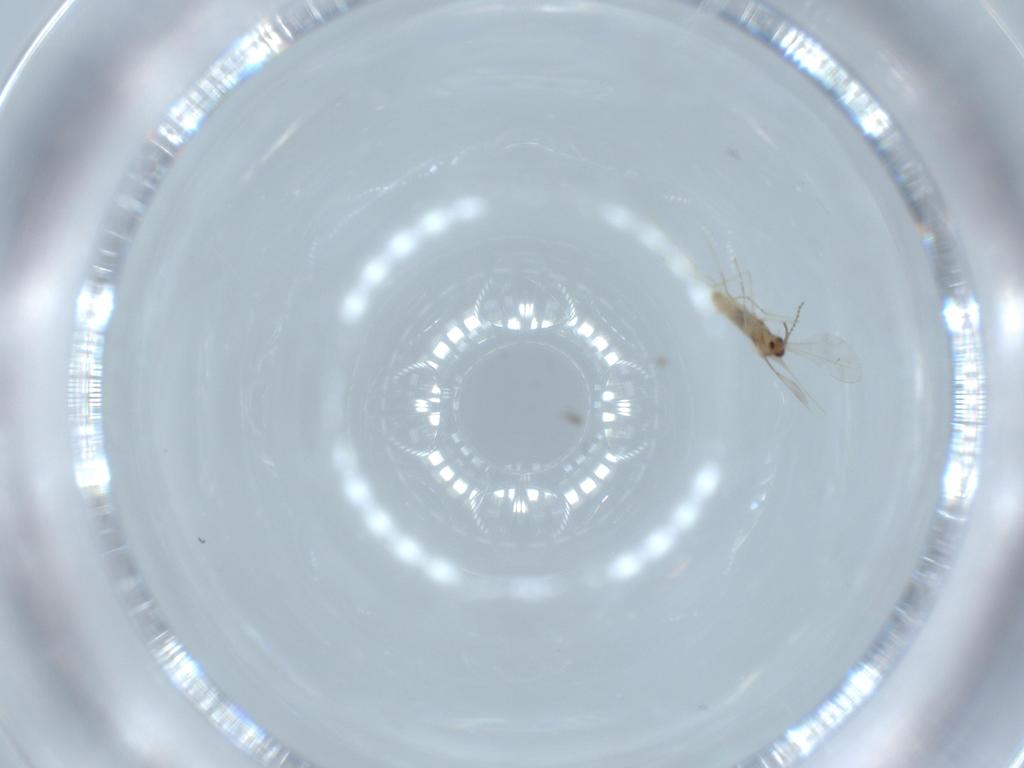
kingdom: Animalia
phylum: Arthropoda
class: Insecta
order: Diptera
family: Cecidomyiidae
